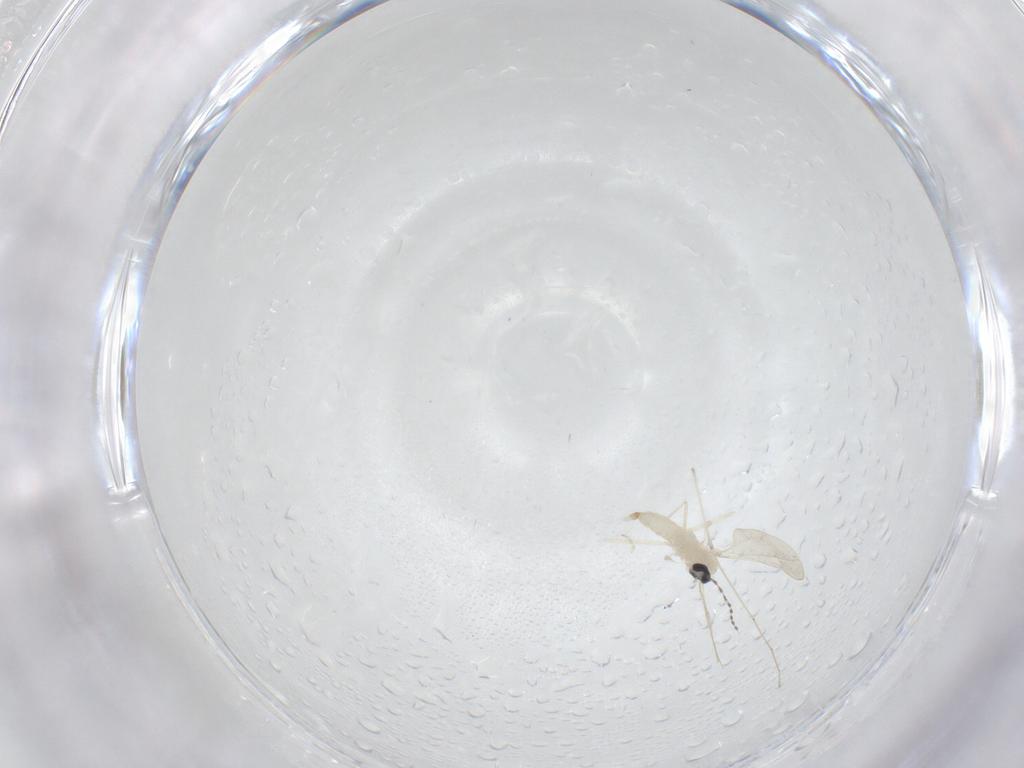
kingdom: Animalia
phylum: Arthropoda
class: Insecta
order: Diptera
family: Cecidomyiidae
